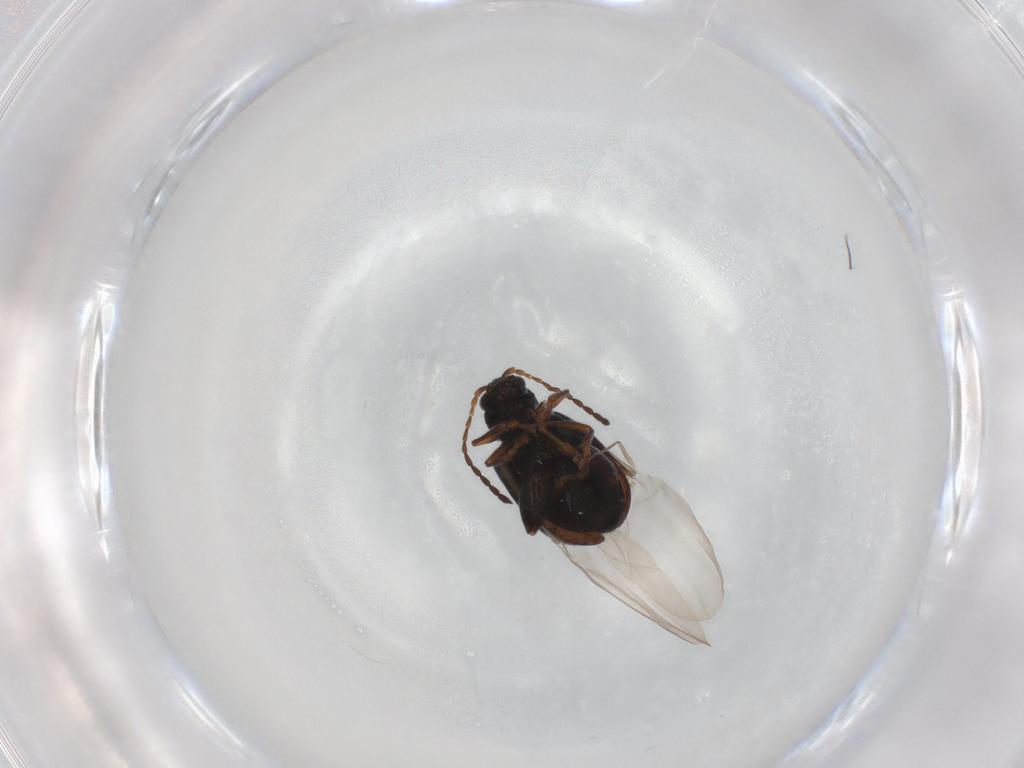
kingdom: Animalia
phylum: Arthropoda
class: Insecta
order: Coleoptera
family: Chrysomelidae
